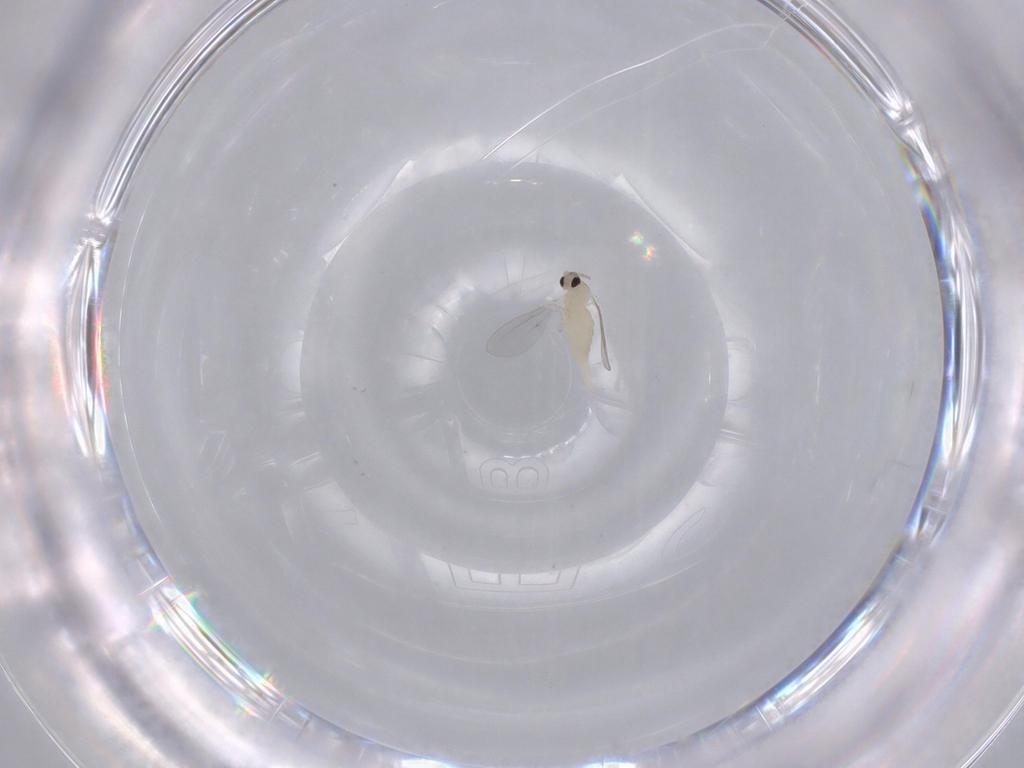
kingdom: Animalia
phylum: Arthropoda
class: Insecta
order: Diptera
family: Cecidomyiidae
